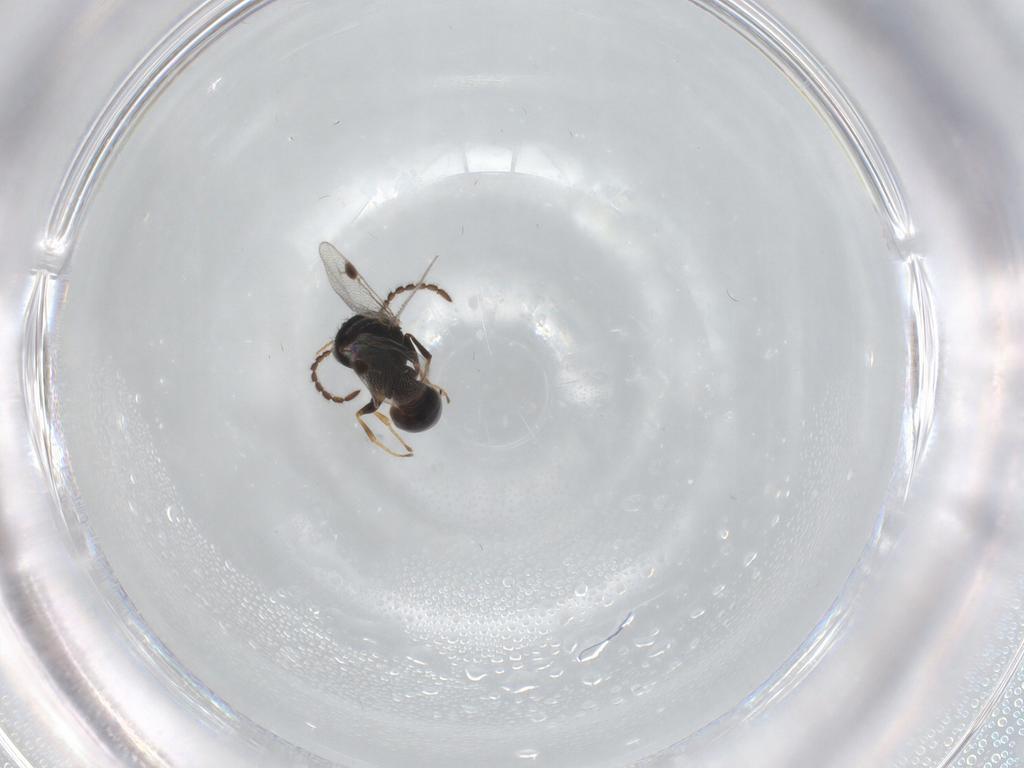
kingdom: Animalia
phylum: Arthropoda
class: Insecta
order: Hymenoptera
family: Dryinidae
